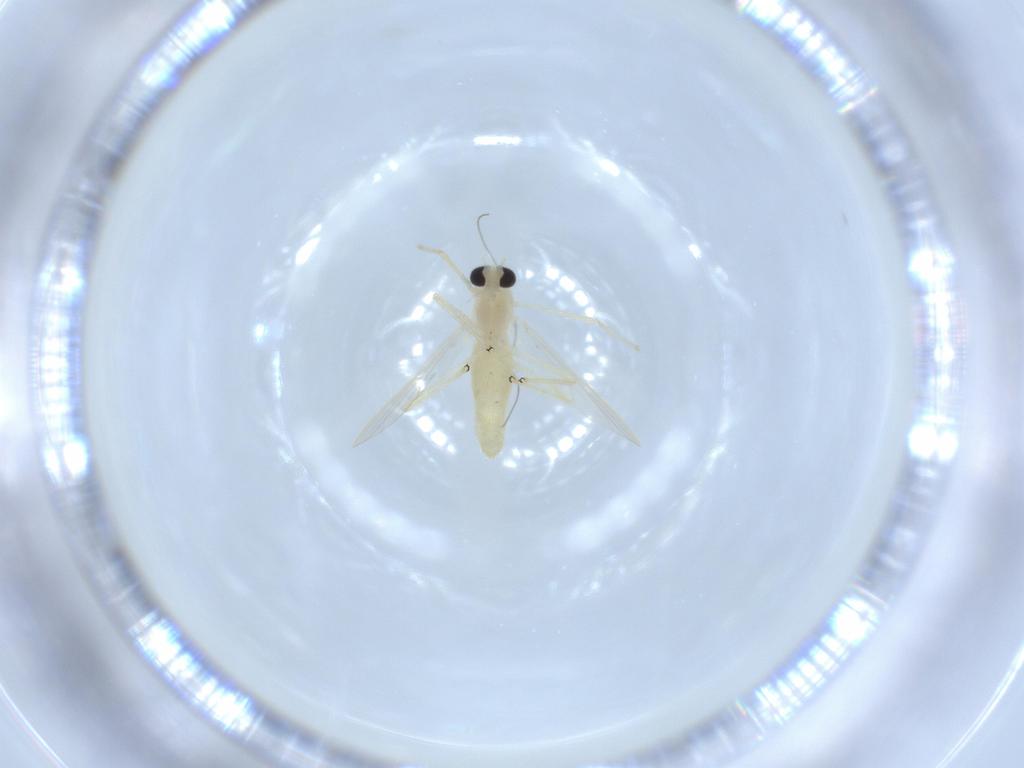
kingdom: Animalia
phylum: Arthropoda
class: Insecta
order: Diptera
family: Chironomidae
